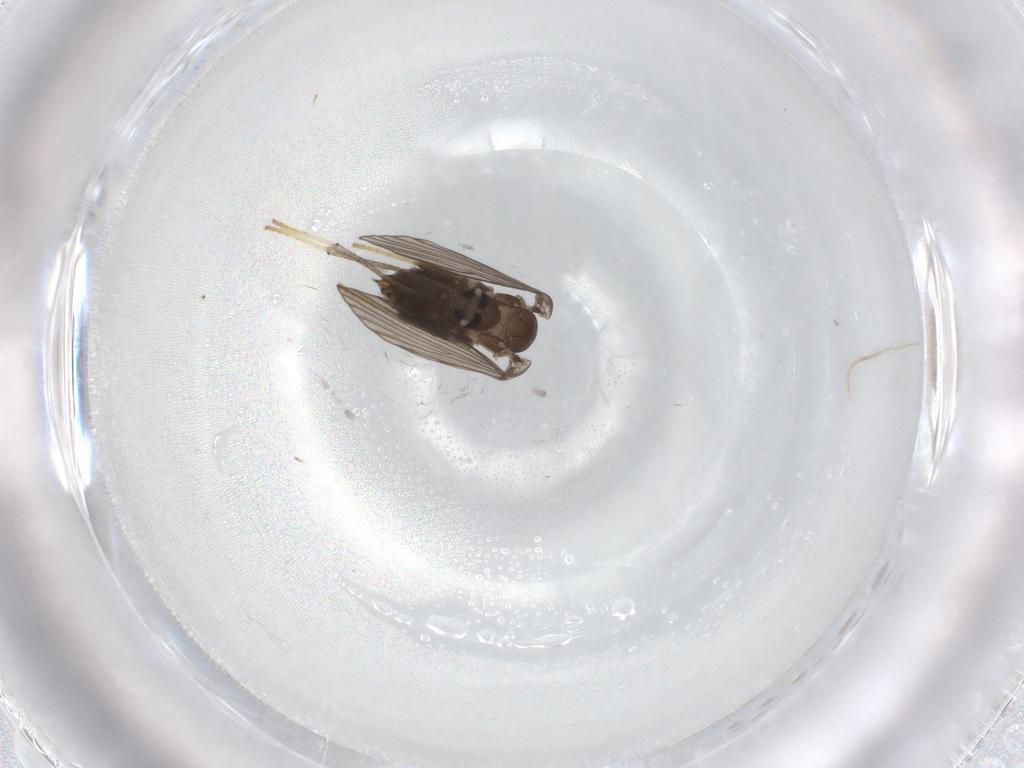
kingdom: Animalia
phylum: Arthropoda
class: Insecta
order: Diptera
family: Psychodidae
